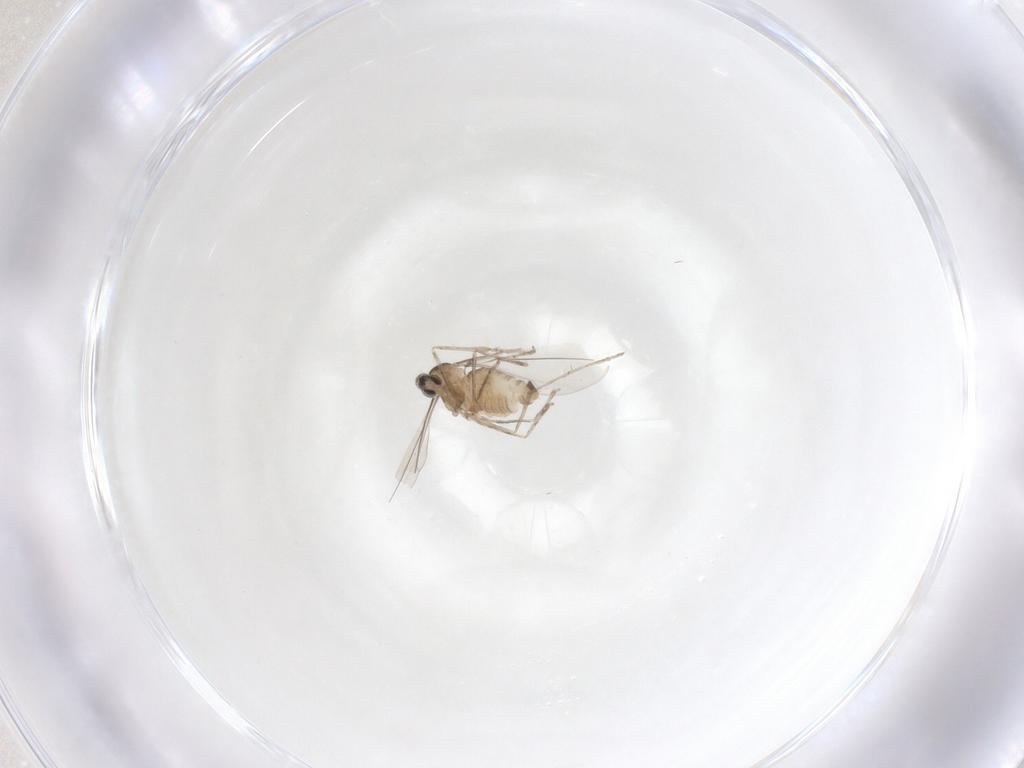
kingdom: Animalia
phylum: Arthropoda
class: Insecta
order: Diptera
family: Cecidomyiidae
